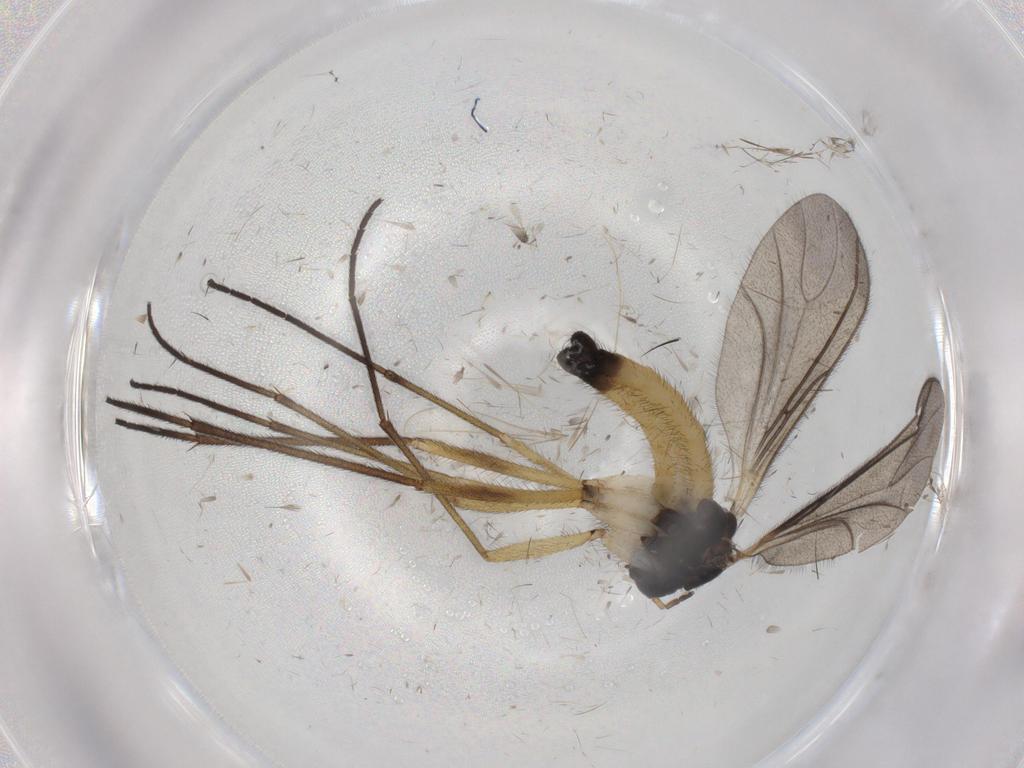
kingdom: Animalia
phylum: Arthropoda
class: Insecta
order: Diptera
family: Sciaridae
